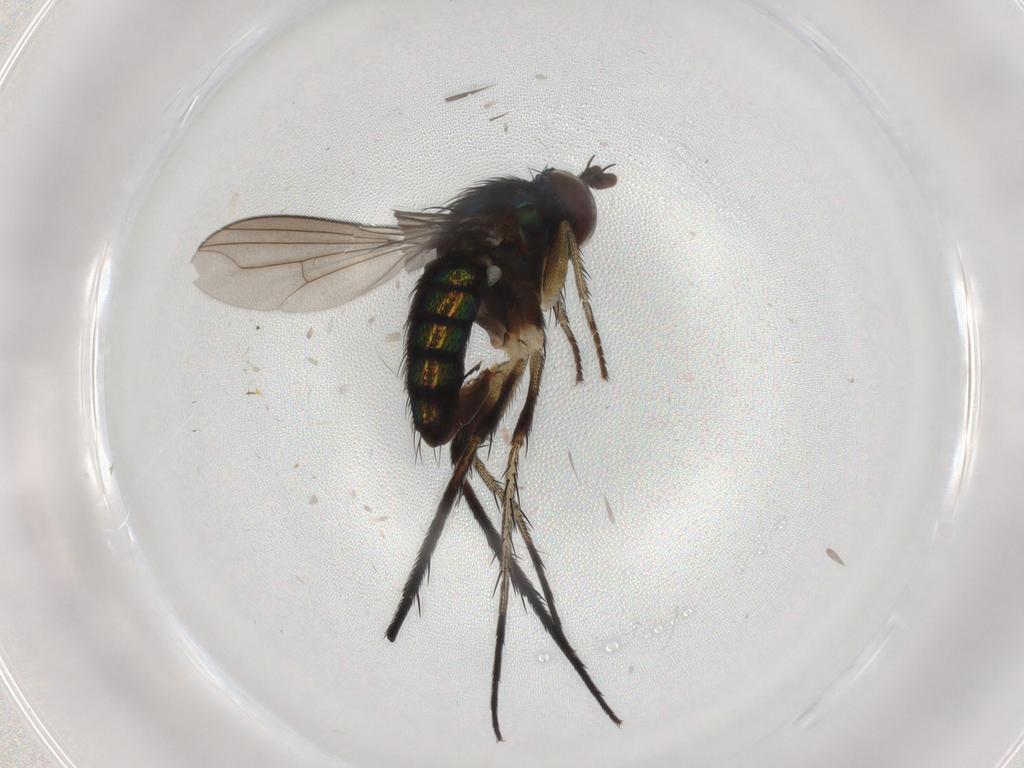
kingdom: Animalia
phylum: Arthropoda
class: Insecta
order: Diptera
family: Dolichopodidae
